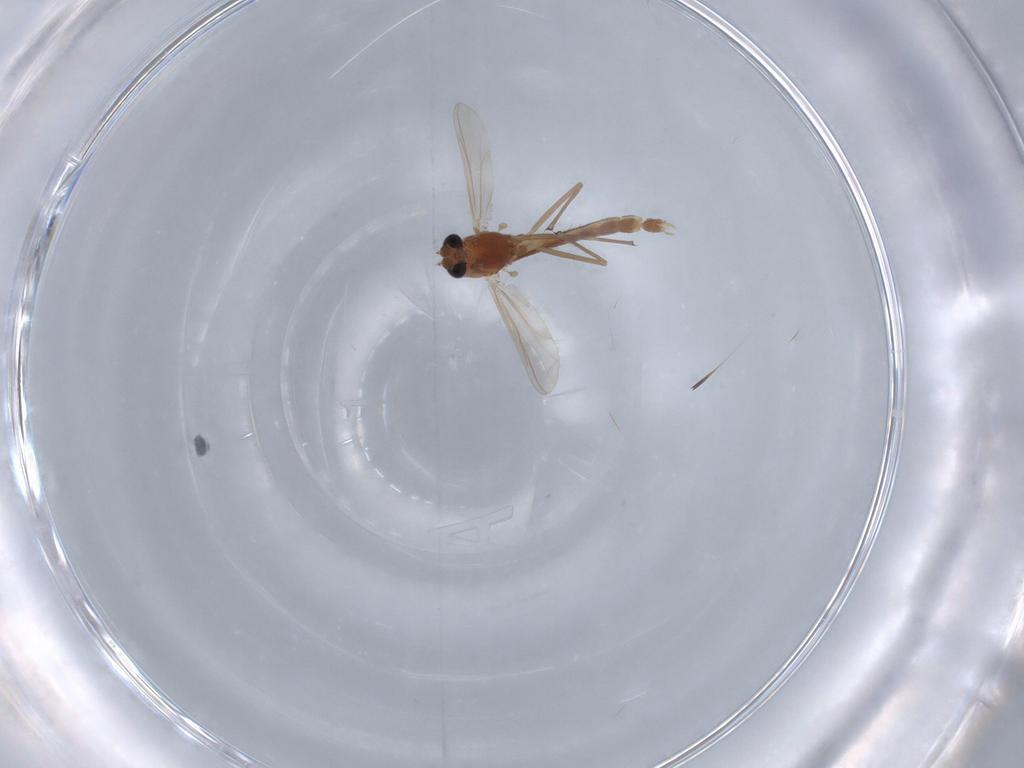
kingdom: Animalia
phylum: Arthropoda
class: Insecta
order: Diptera
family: Chironomidae
